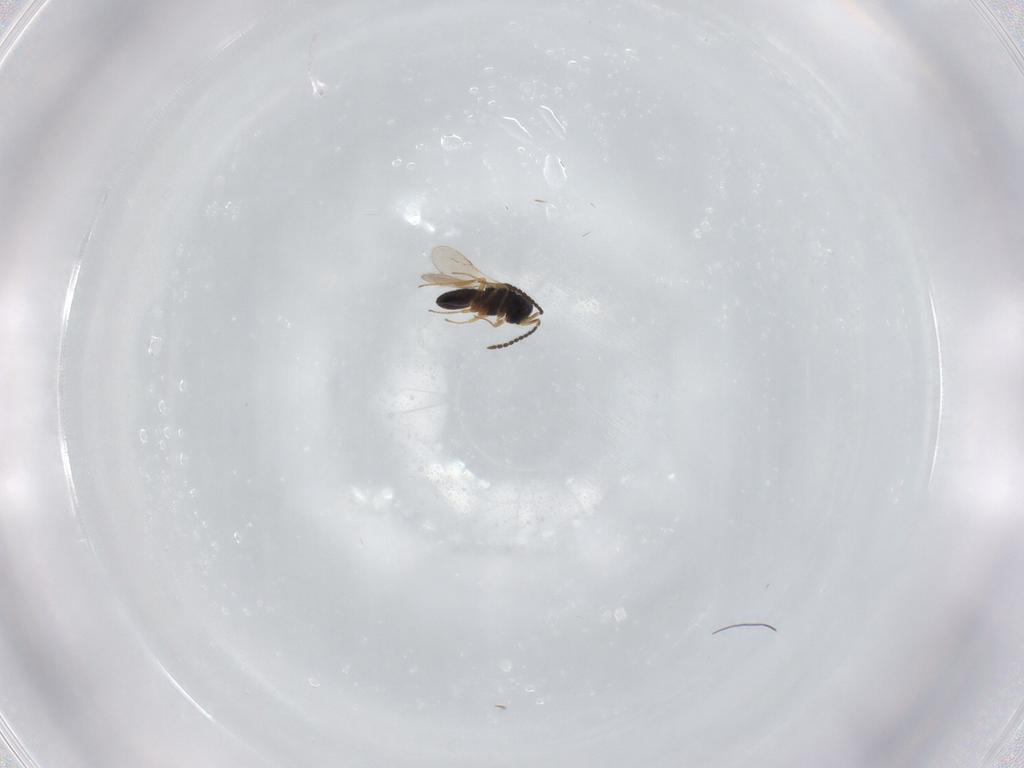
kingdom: Animalia
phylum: Arthropoda
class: Insecta
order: Hymenoptera
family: Scelionidae
